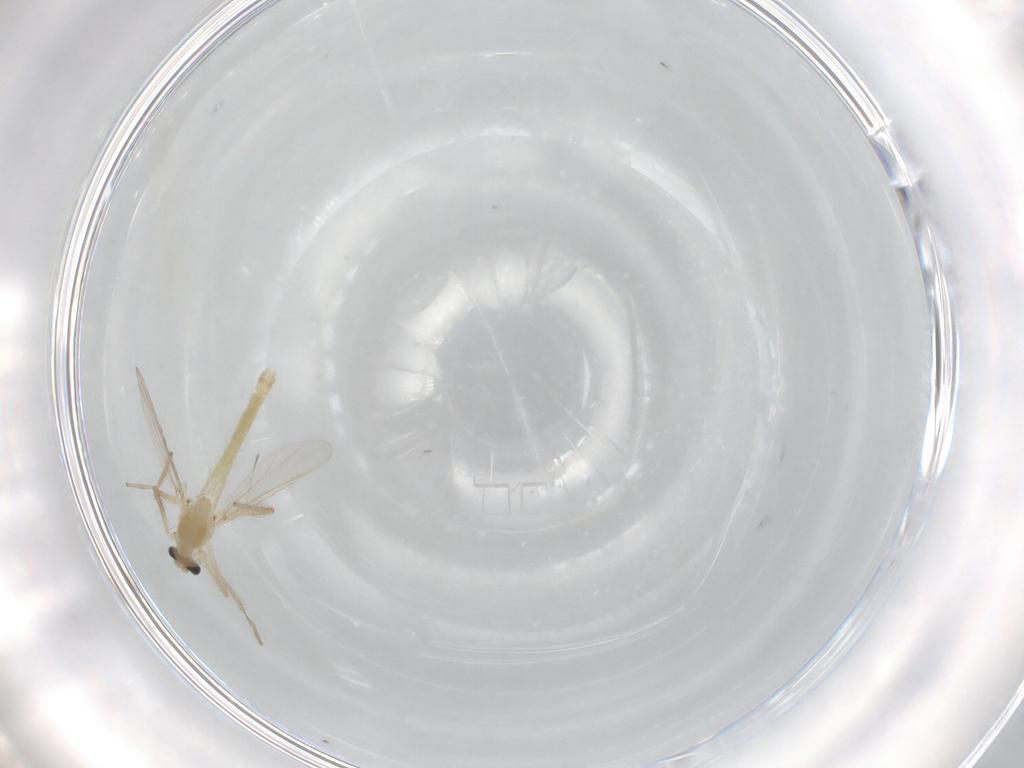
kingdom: Animalia
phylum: Arthropoda
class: Insecta
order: Diptera
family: Chironomidae
